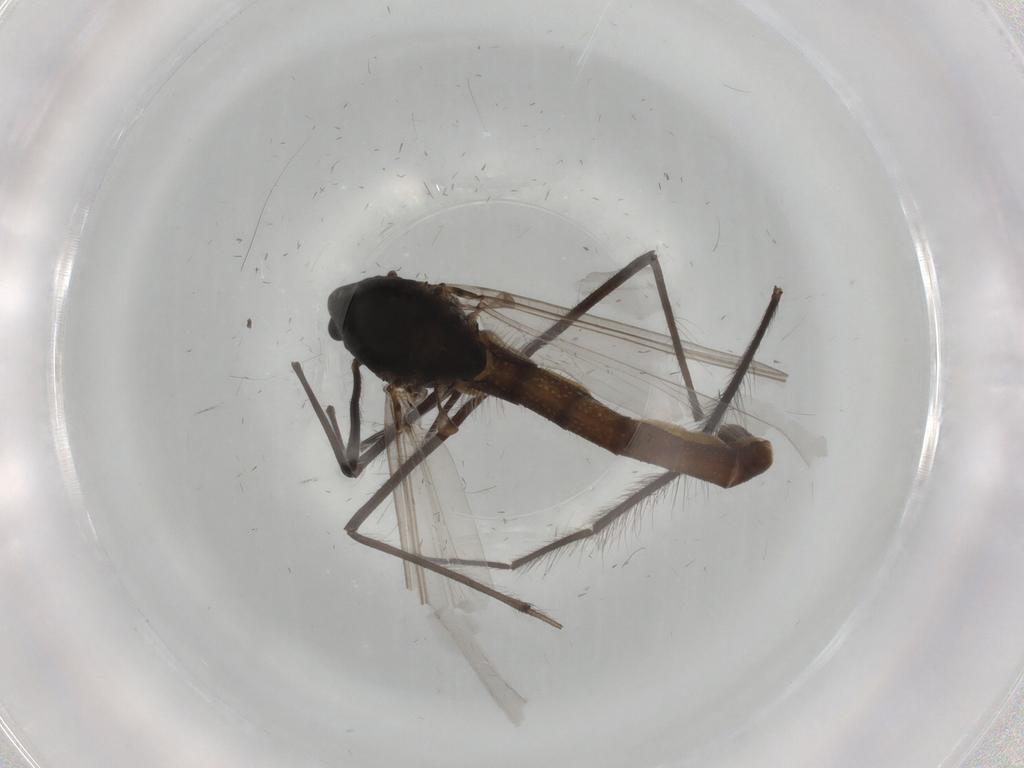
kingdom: Animalia
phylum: Arthropoda
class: Insecta
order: Diptera
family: Chironomidae
